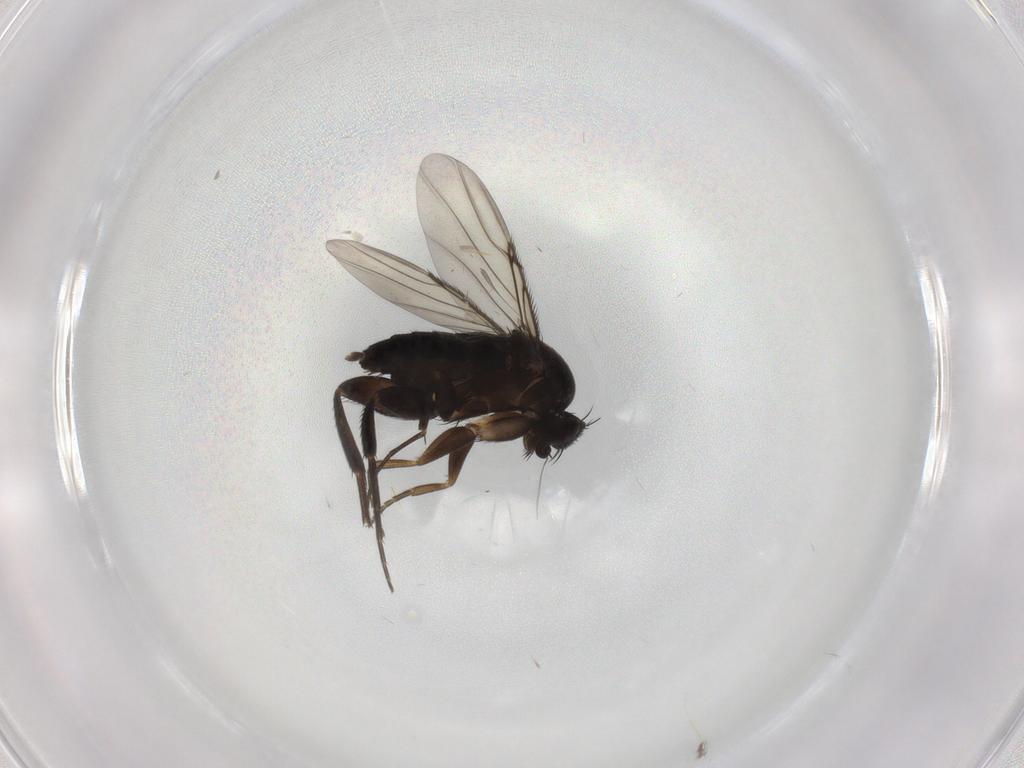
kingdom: Animalia
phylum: Arthropoda
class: Insecta
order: Diptera
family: Phoridae
